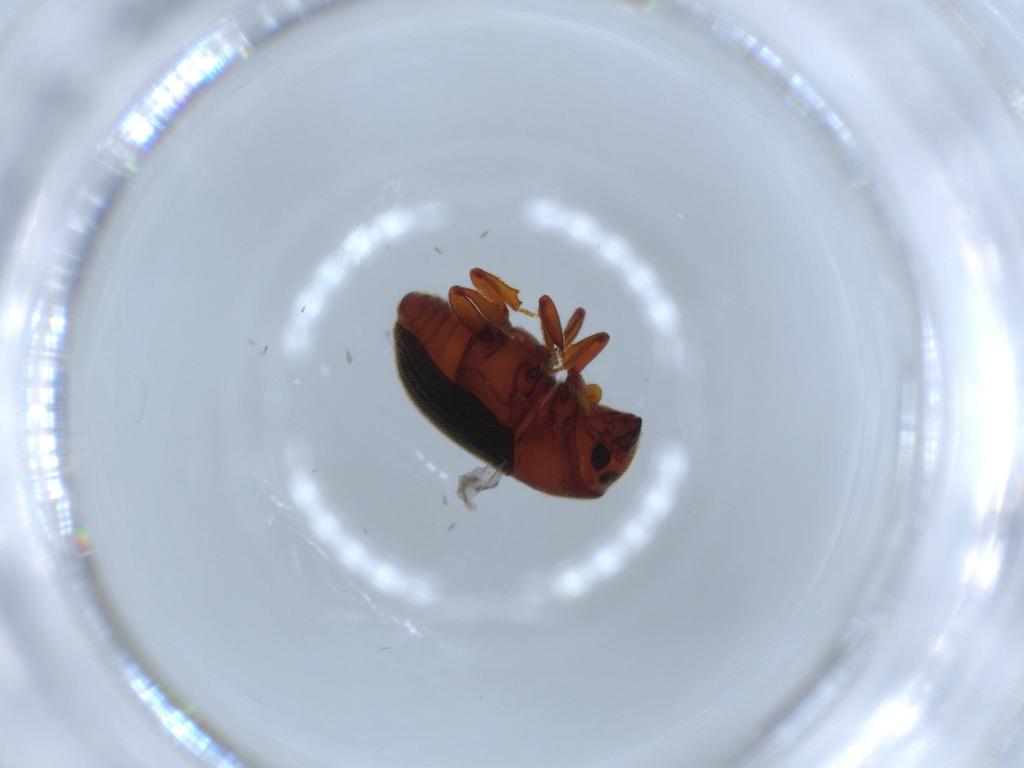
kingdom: Animalia
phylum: Arthropoda
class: Insecta
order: Coleoptera
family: Chrysomelidae
